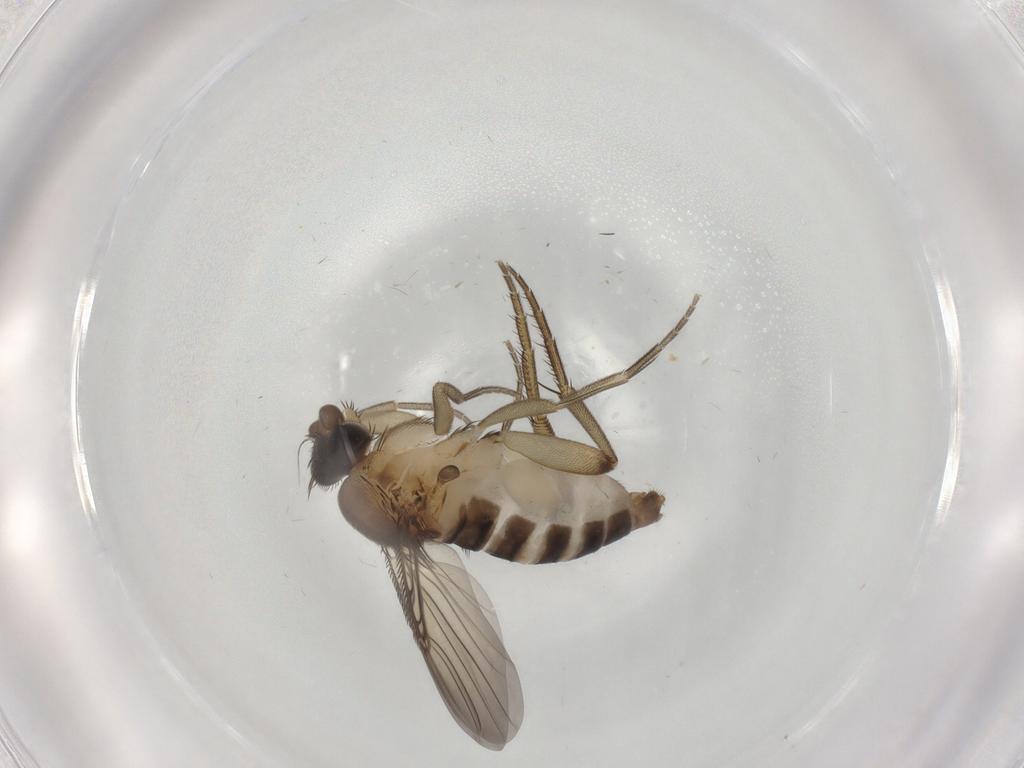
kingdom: Animalia
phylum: Arthropoda
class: Insecta
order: Diptera
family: Phoridae
